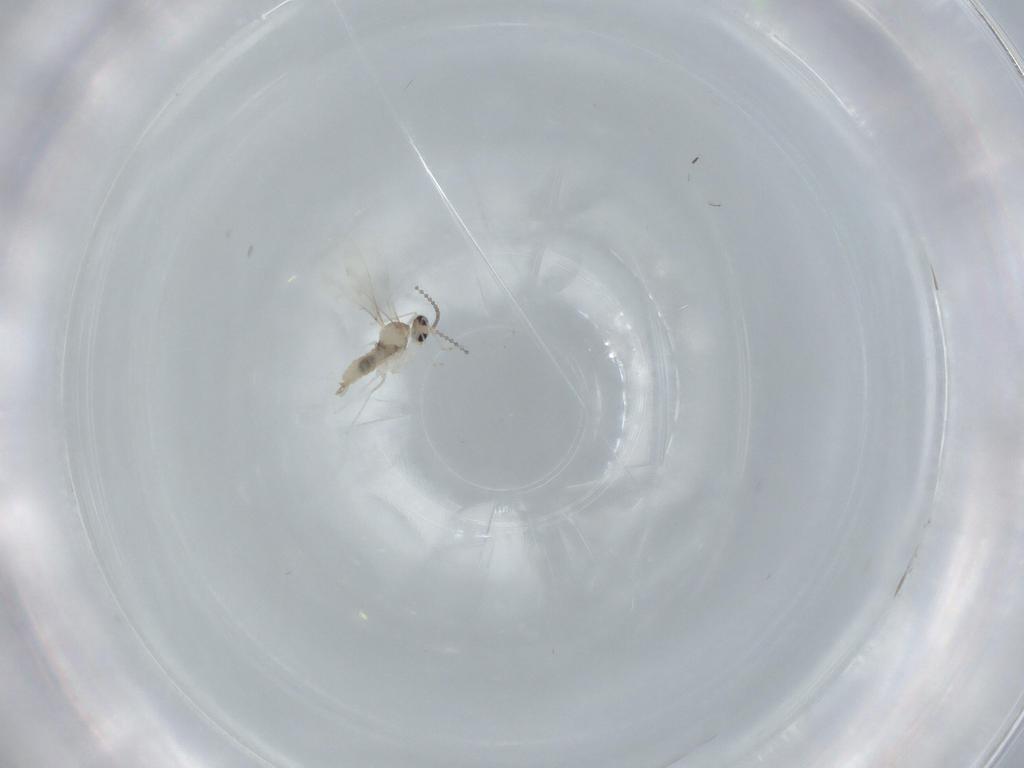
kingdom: Animalia
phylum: Arthropoda
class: Insecta
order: Diptera
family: Cecidomyiidae
